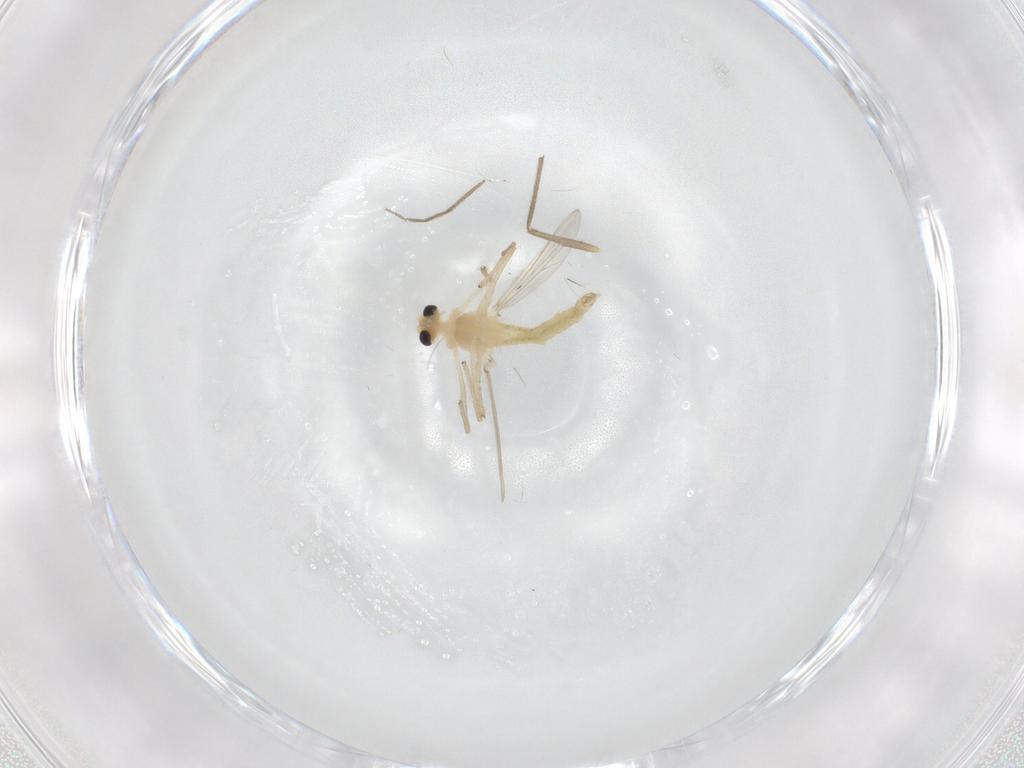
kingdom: Animalia
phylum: Arthropoda
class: Insecta
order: Diptera
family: Chironomidae
